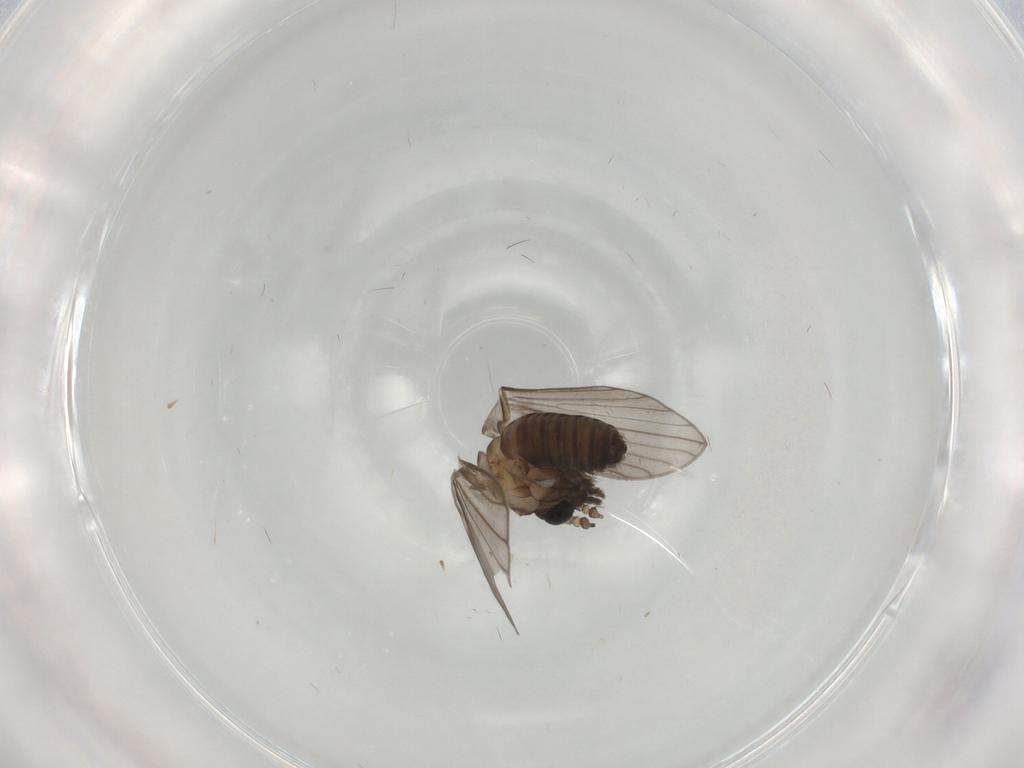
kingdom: Animalia
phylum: Arthropoda
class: Insecta
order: Diptera
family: Psychodidae
